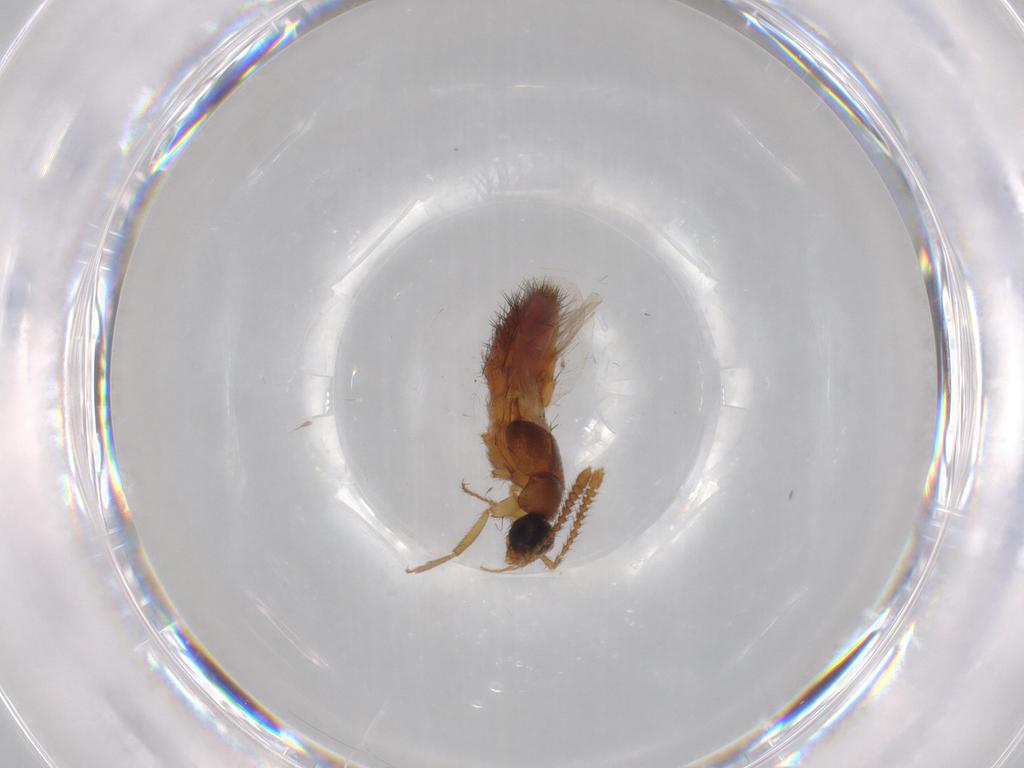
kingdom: Animalia
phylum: Arthropoda
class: Insecta
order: Coleoptera
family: Staphylinidae
